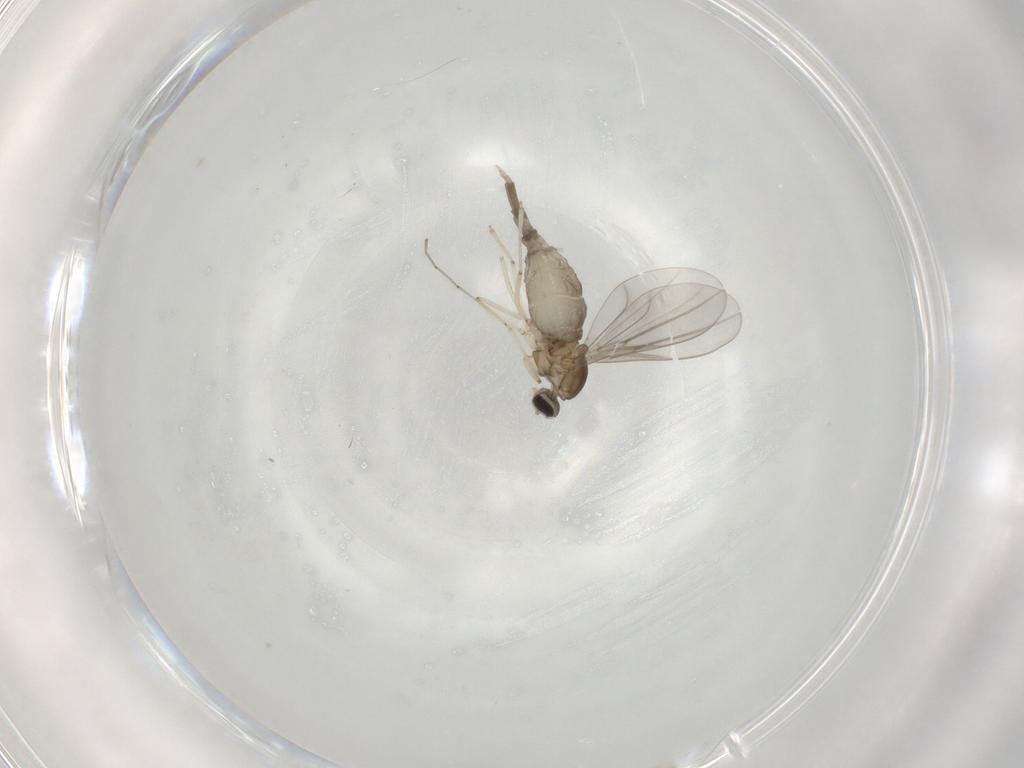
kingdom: Animalia
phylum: Arthropoda
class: Insecta
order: Diptera
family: Cecidomyiidae
